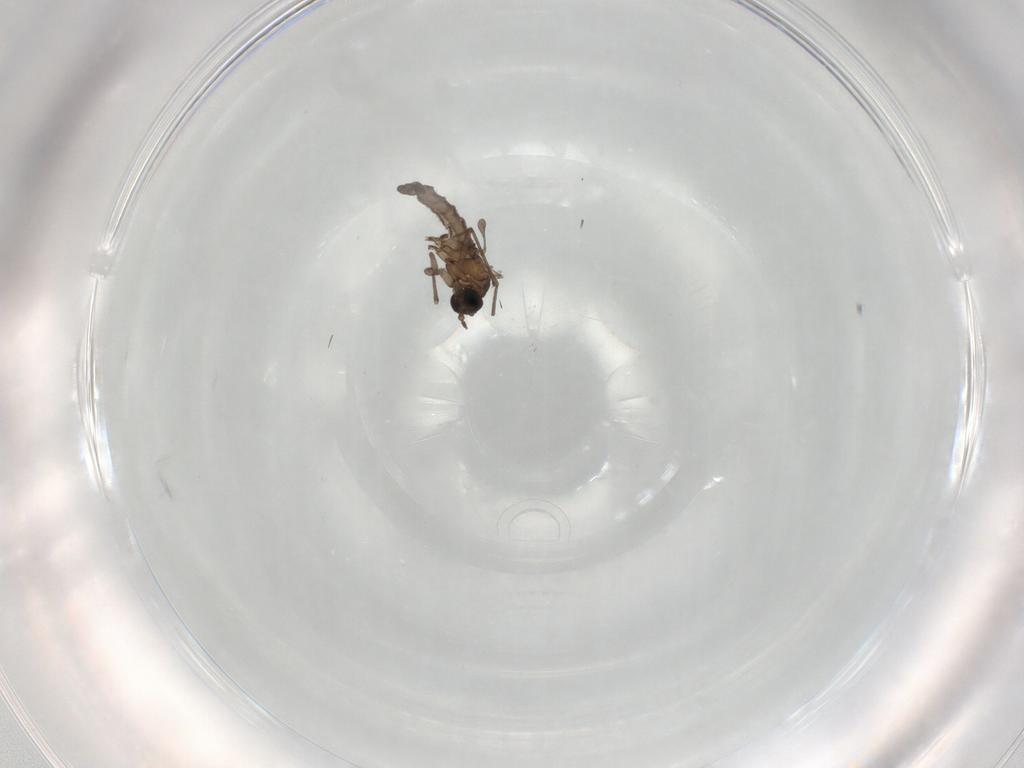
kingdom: Animalia
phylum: Arthropoda
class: Insecta
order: Diptera
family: Sciaridae
